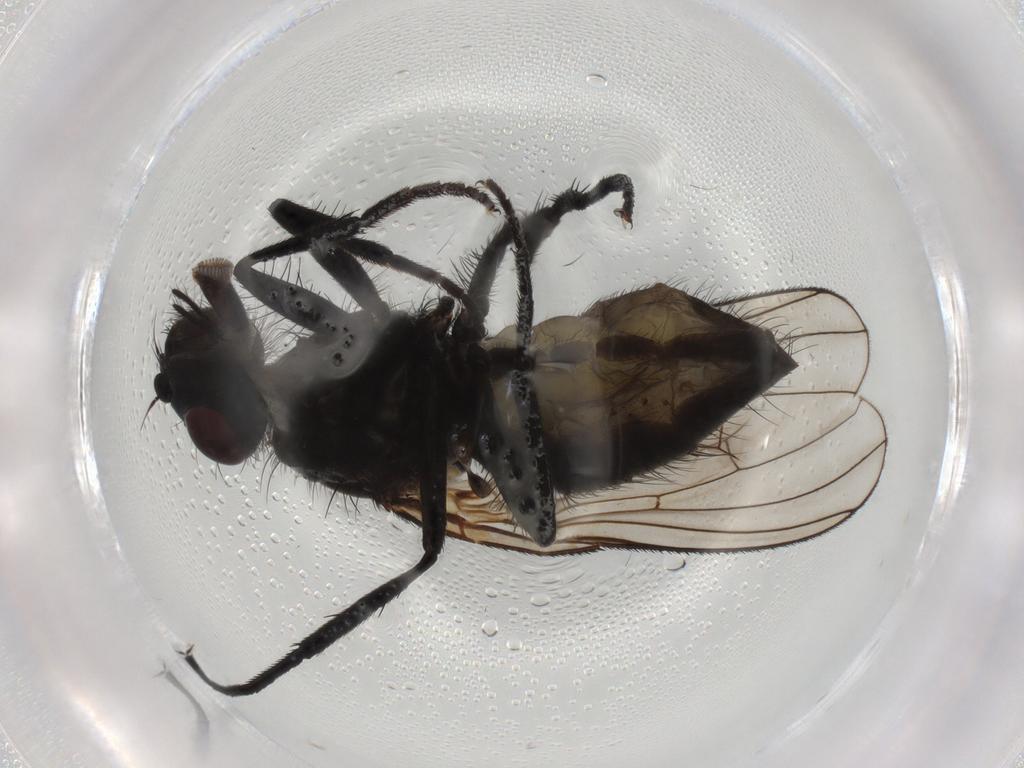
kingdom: Animalia
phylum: Arthropoda
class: Insecta
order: Diptera
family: Muscidae
